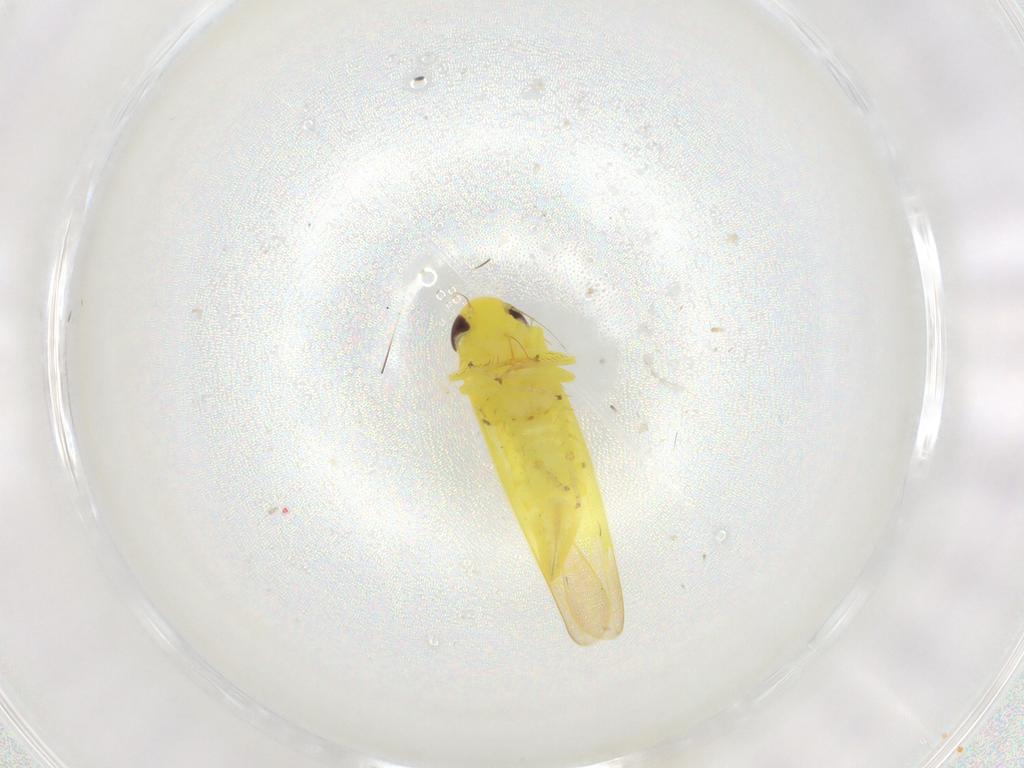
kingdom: Animalia
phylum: Arthropoda
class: Insecta
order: Hemiptera
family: Cicadellidae
